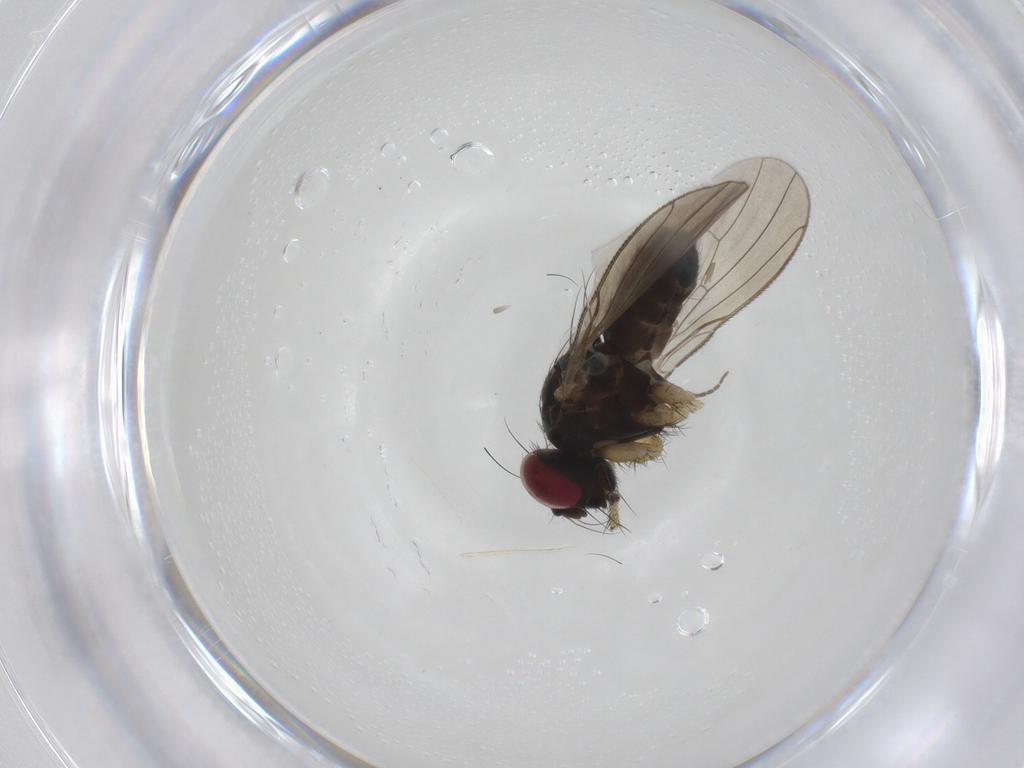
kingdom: Animalia
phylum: Arthropoda
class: Insecta
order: Diptera
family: Muscidae
